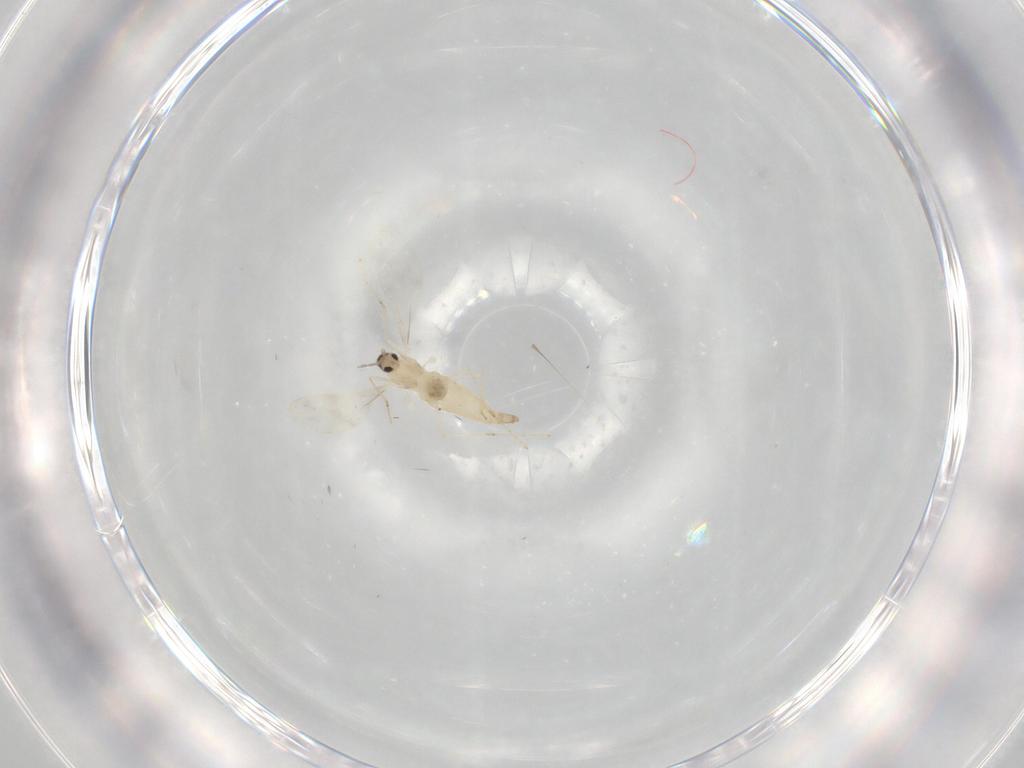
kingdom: Animalia
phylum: Arthropoda
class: Insecta
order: Diptera
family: Cecidomyiidae
